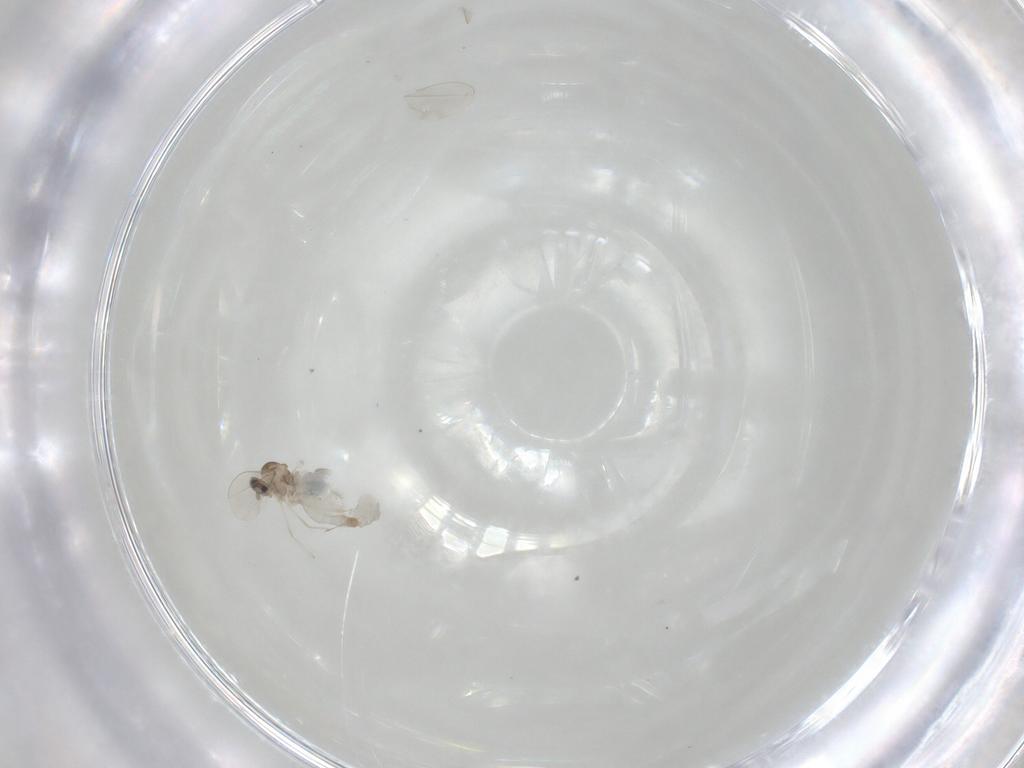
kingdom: Animalia
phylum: Arthropoda
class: Insecta
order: Diptera
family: Cecidomyiidae
